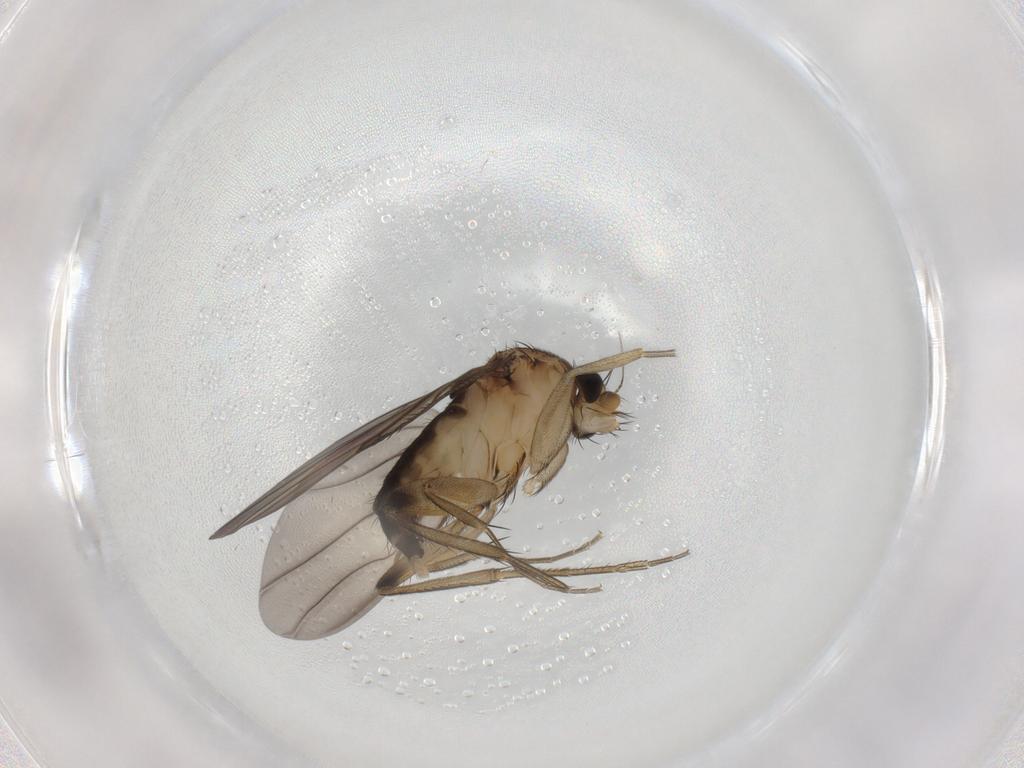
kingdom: Animalia
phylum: Arthropoda
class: Insecta
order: Diptera
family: Phoridae
